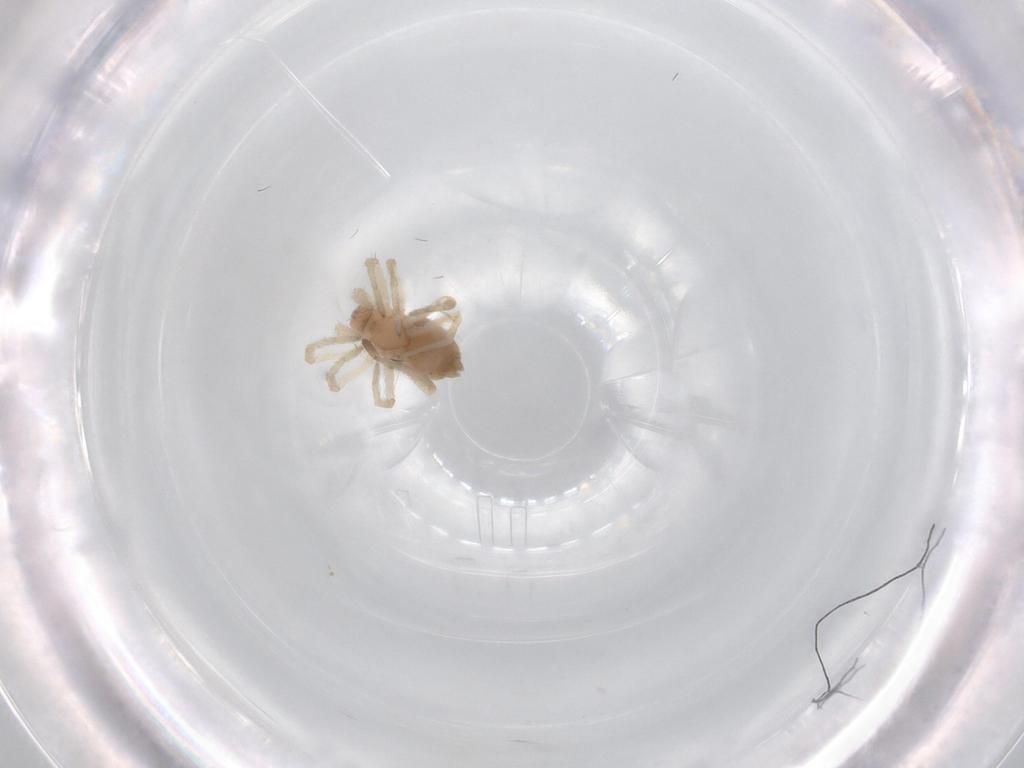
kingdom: Animalia
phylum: Arthropoda
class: Arachnida
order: Araneae
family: Dictynidae
